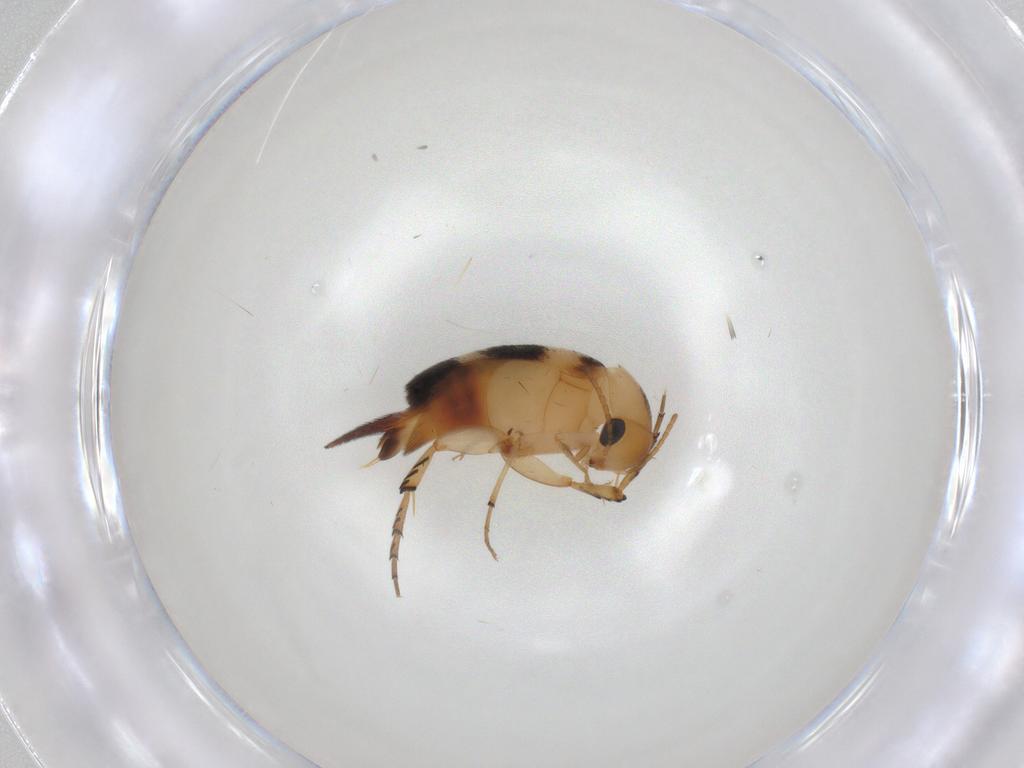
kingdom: Animalia
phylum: Arthropoda
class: Insecta
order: Coleoptera
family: Mordellidae
